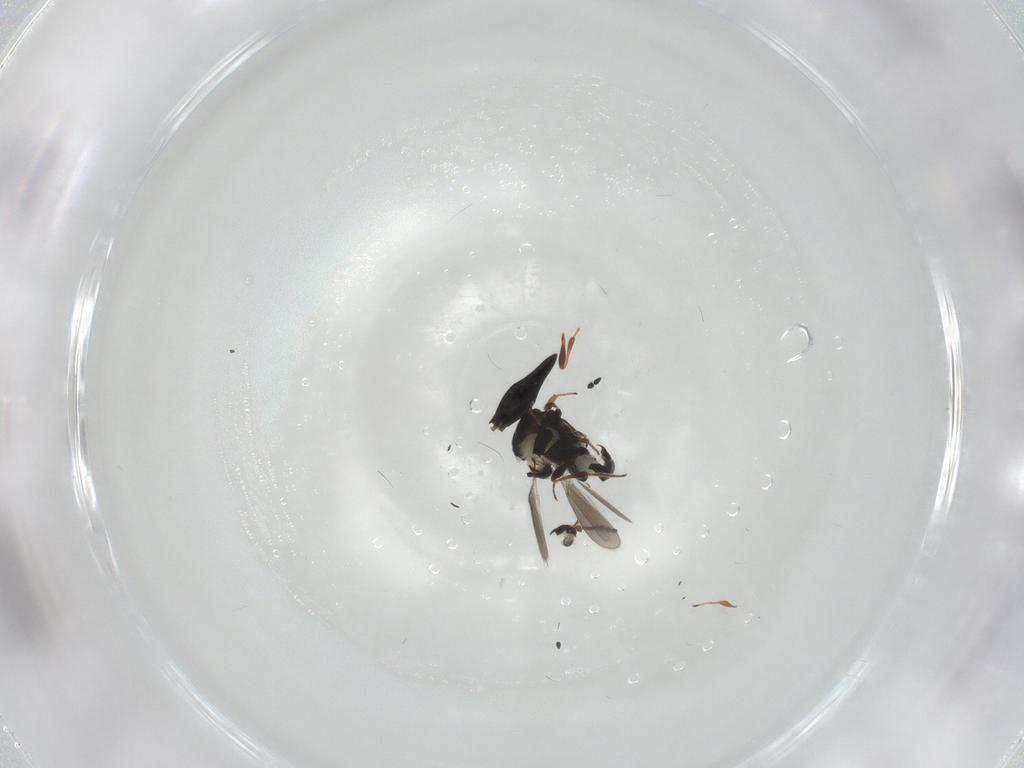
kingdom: Animalia
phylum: Arthropoda
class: Insecta
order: Hymenoptera
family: Platygastridae
